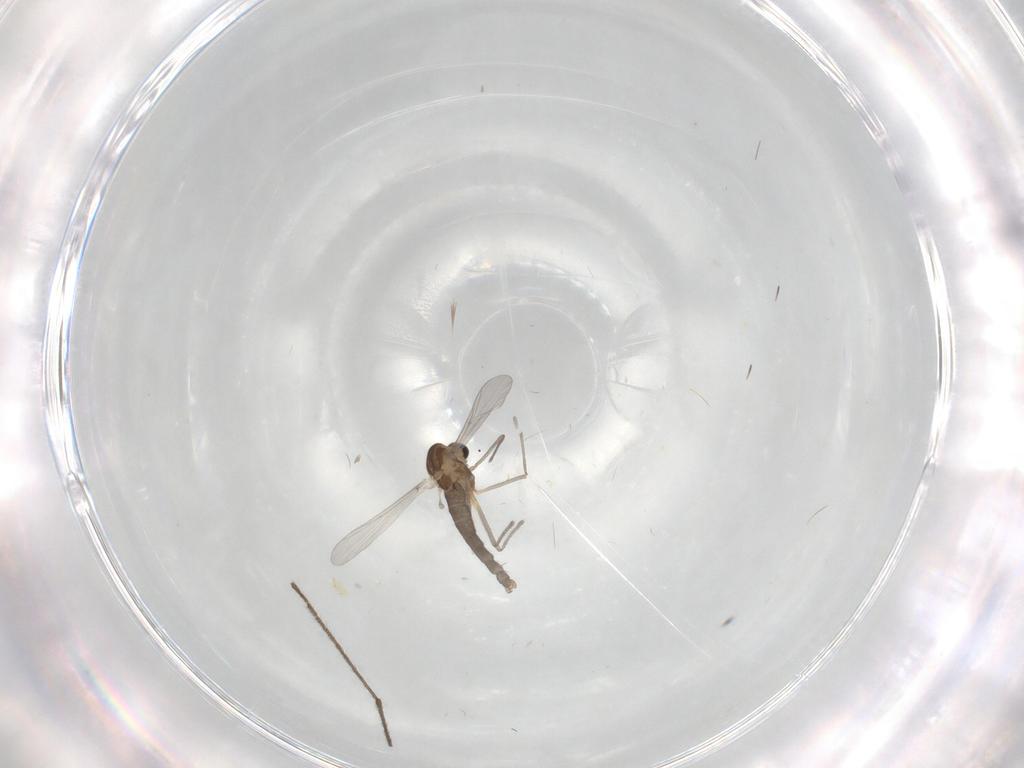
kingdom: Animalia
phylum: Arthropoda
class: Insecta
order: Diptera
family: Chironomidae
